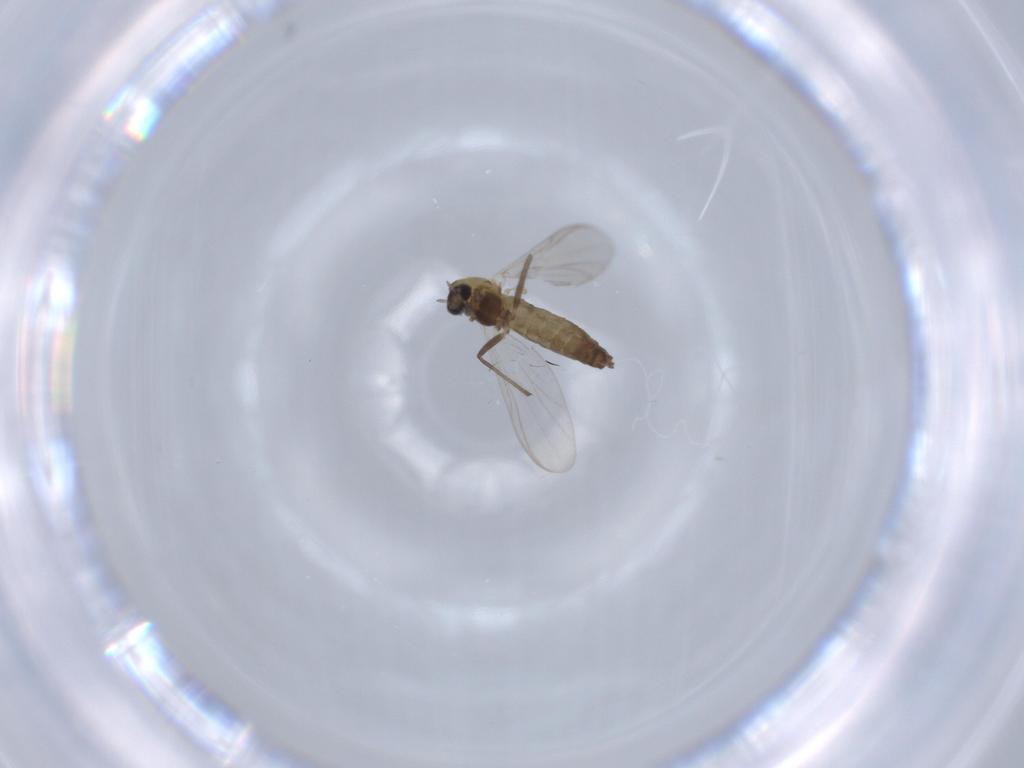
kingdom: Animalia
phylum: Arthropoda
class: Insecta
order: Diptera
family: Chironomidae
